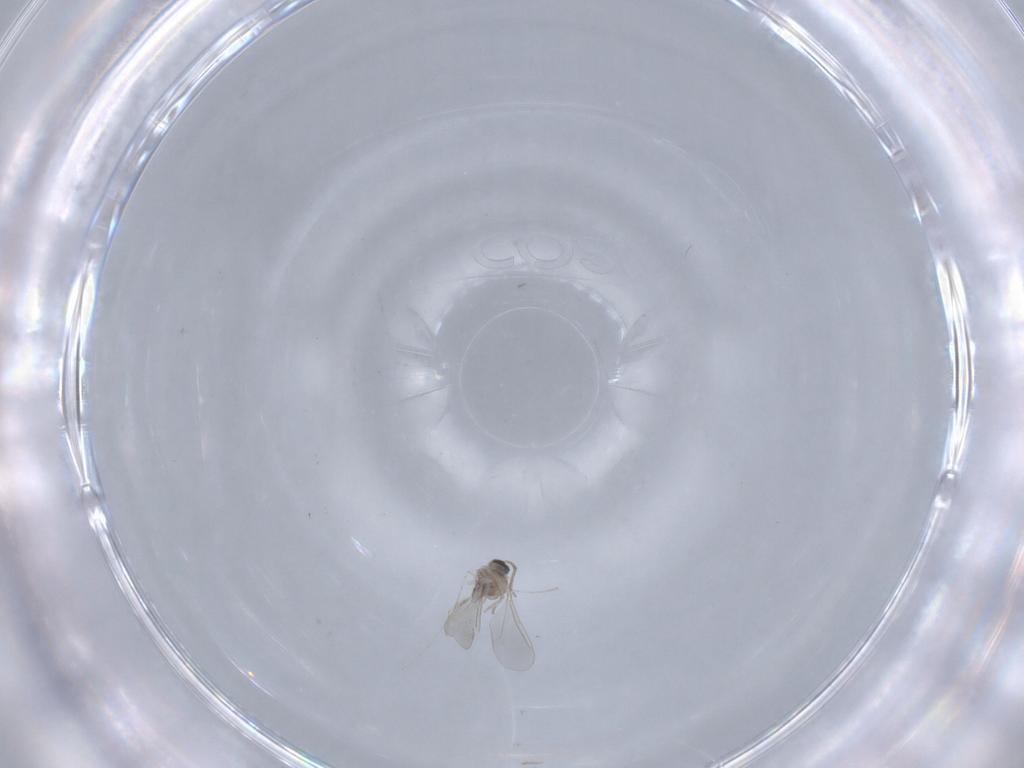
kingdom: Animalia
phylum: Arthropoda
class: Insecta
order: Diptera
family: Cecidomyiidae
